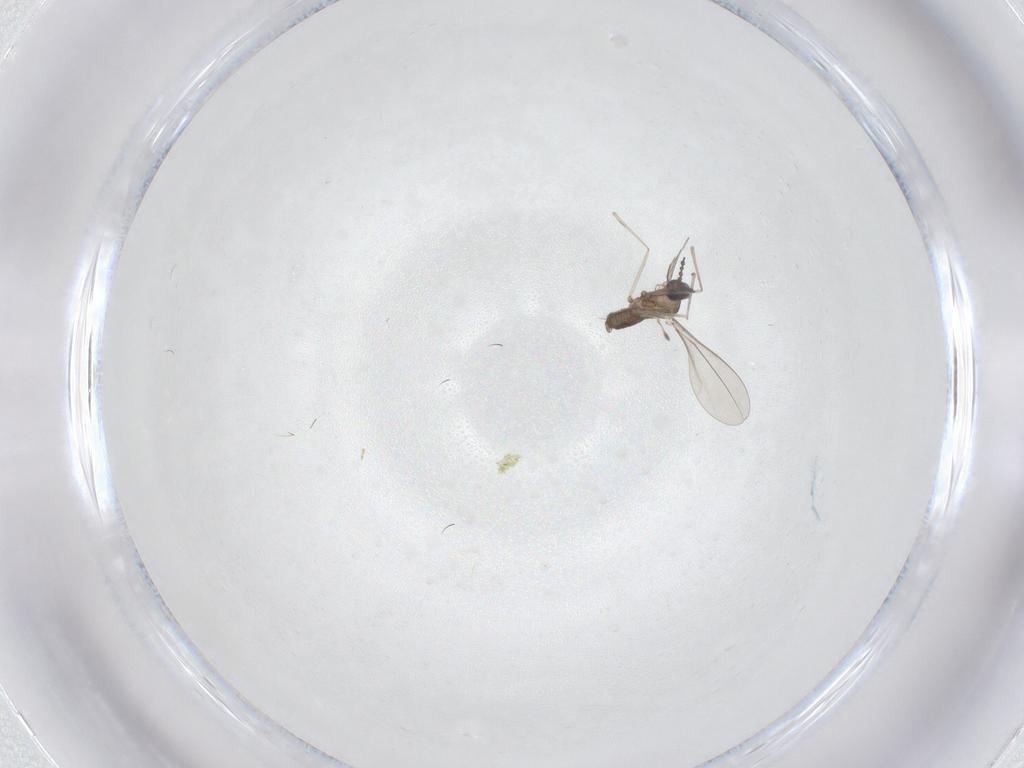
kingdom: Animalia
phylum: Arthropoda
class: Insecta
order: Diptera
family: Cecidomyiidae
